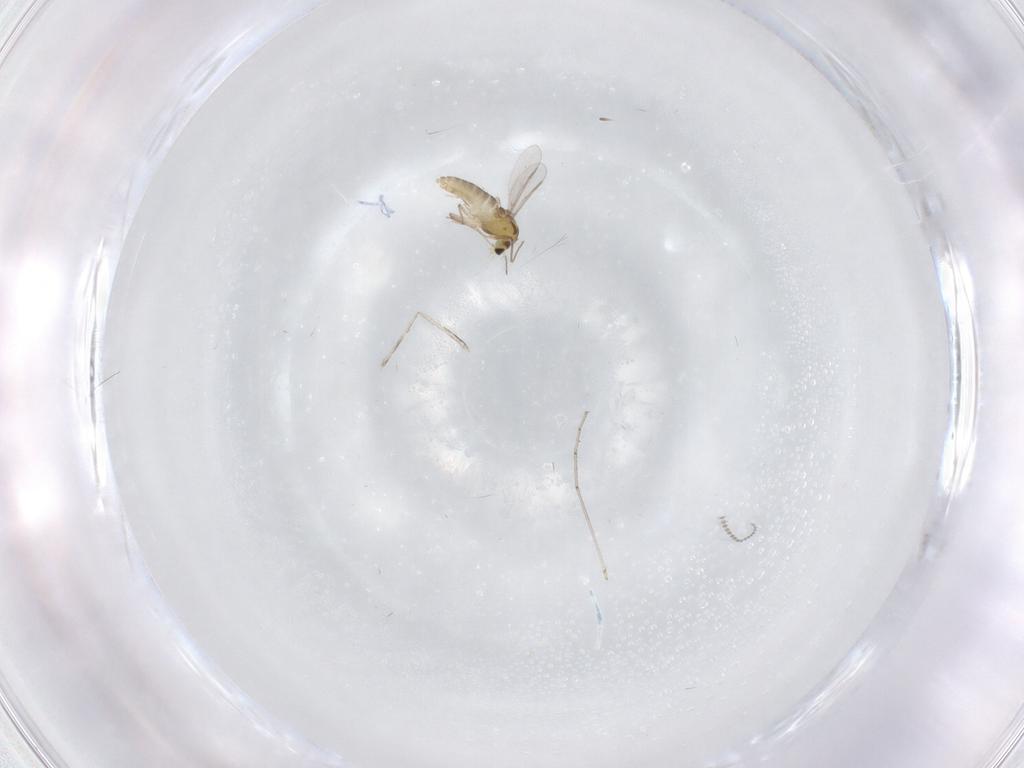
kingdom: Animalia
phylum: Arthropoda
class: Insecta
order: Diptera
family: Chironomidae
